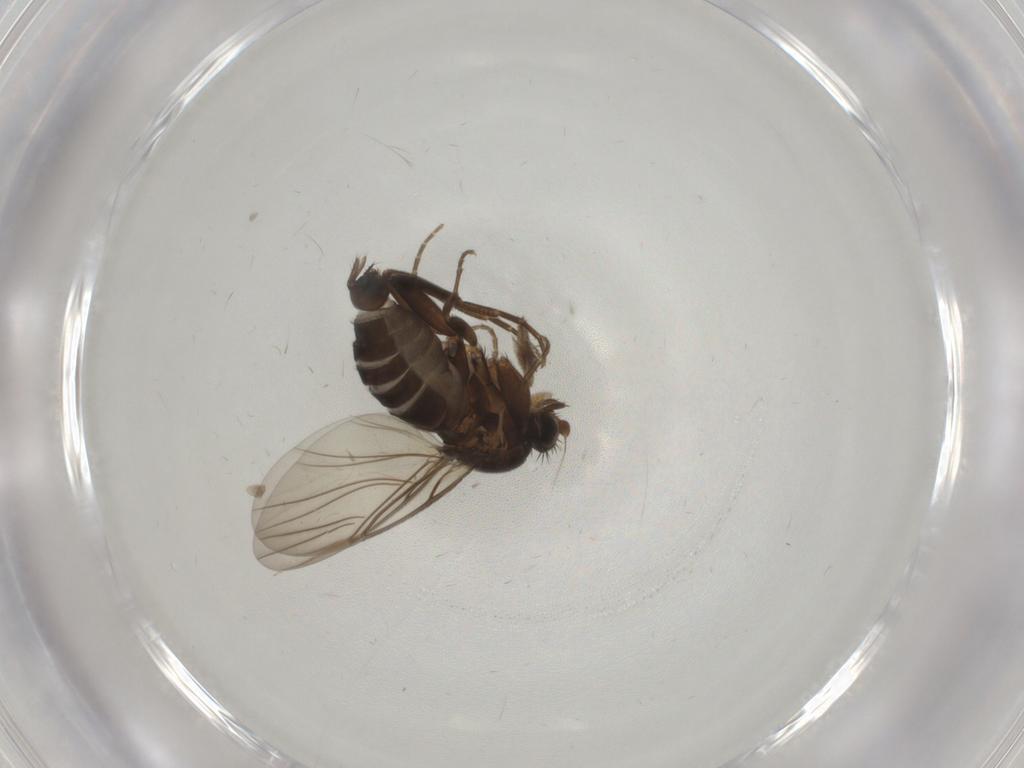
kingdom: Animalia
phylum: Arthropoda
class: Insecta
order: Diptera
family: Cecidomyiidae
